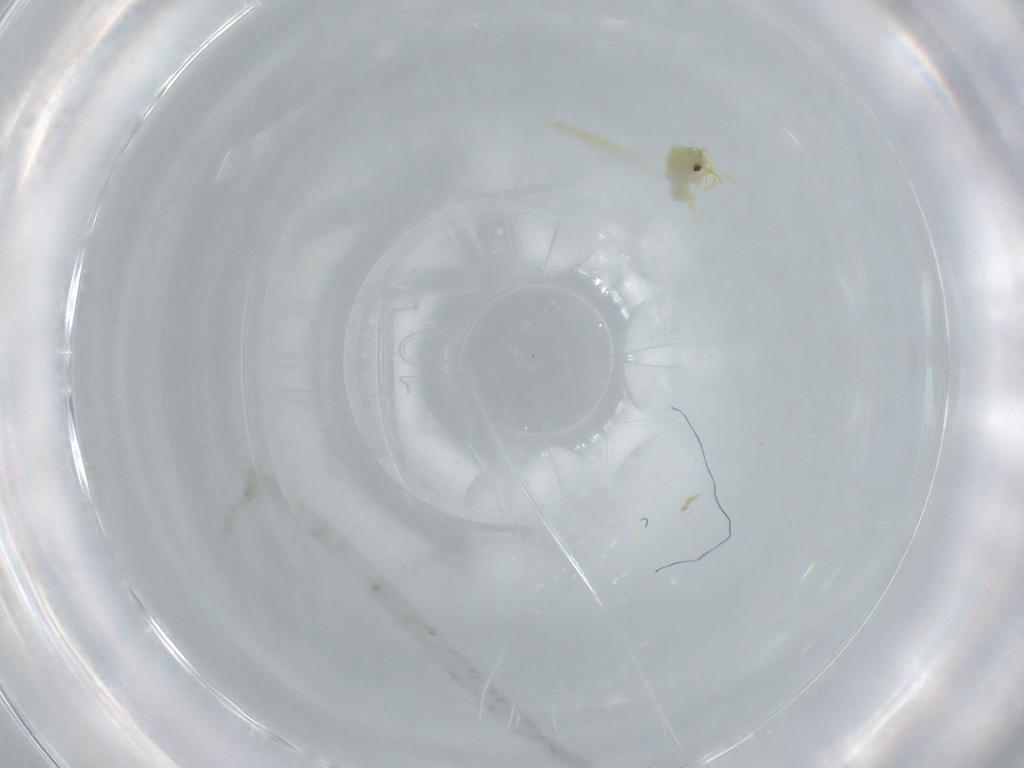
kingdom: Animalia
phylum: Arthropoda
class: Insecta
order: Hemiptera
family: Aleyrodidae
